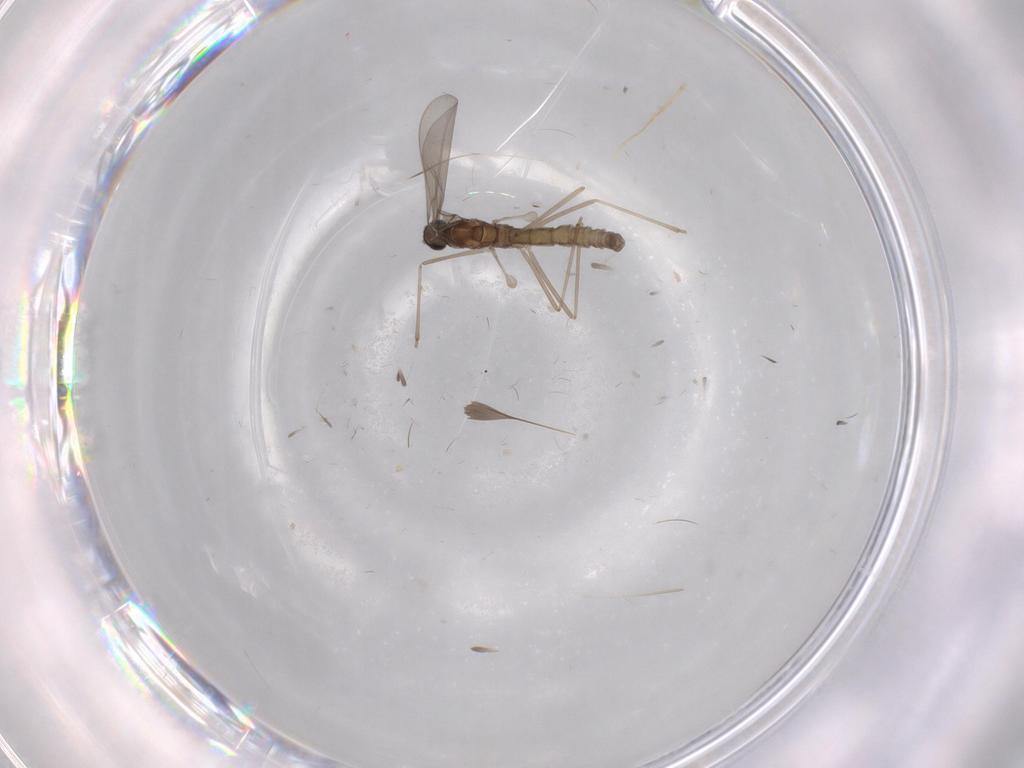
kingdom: Animalia
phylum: Arthropoda
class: Insecta
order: Diptera
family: Limoniidae
